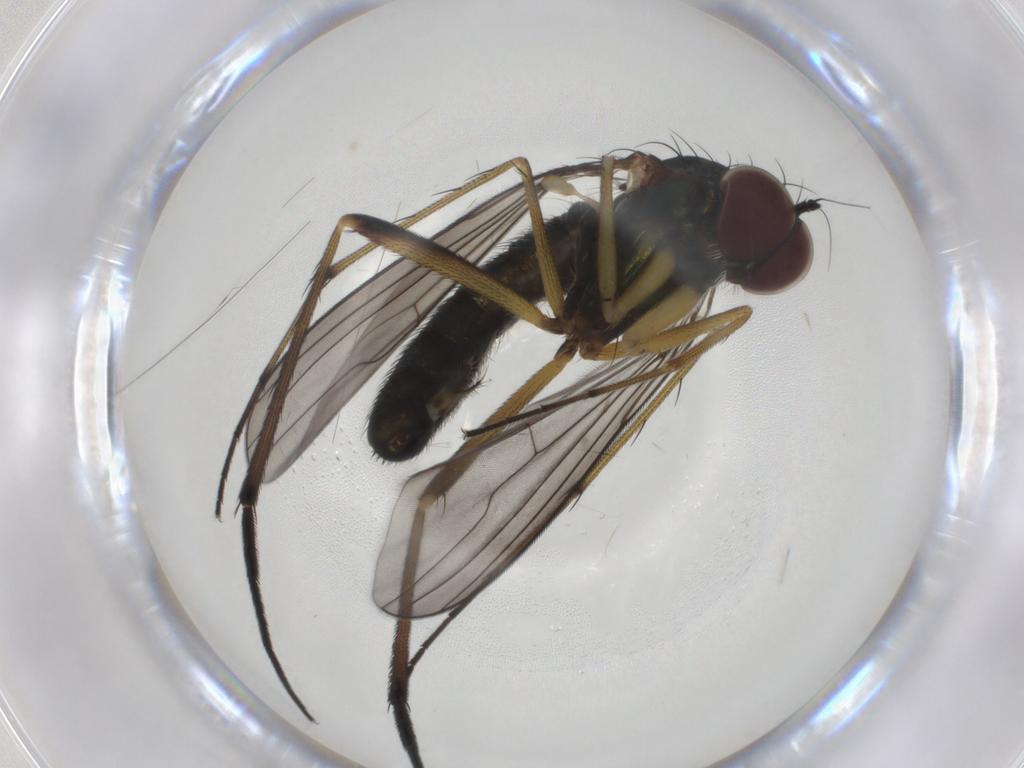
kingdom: Animalia
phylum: Arthropoda
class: Insecta
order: Diptera
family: Dolichopodidae
